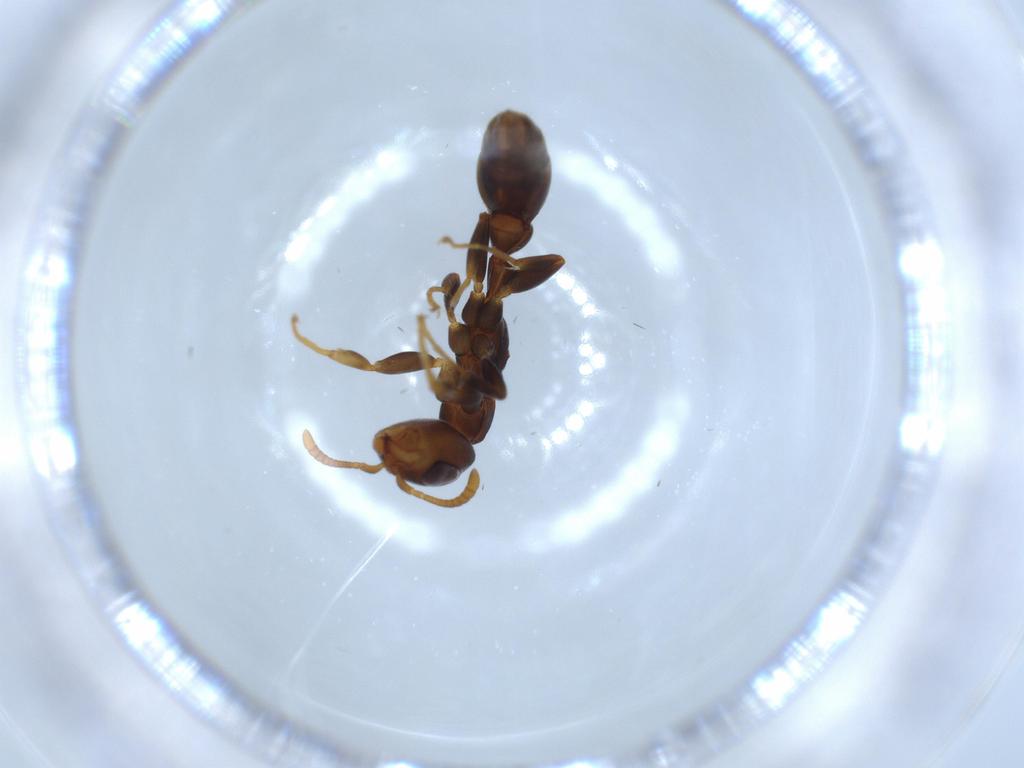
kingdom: Animalia
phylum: Arthropoda
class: Insecta
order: Hymenoptera
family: Formicidae
